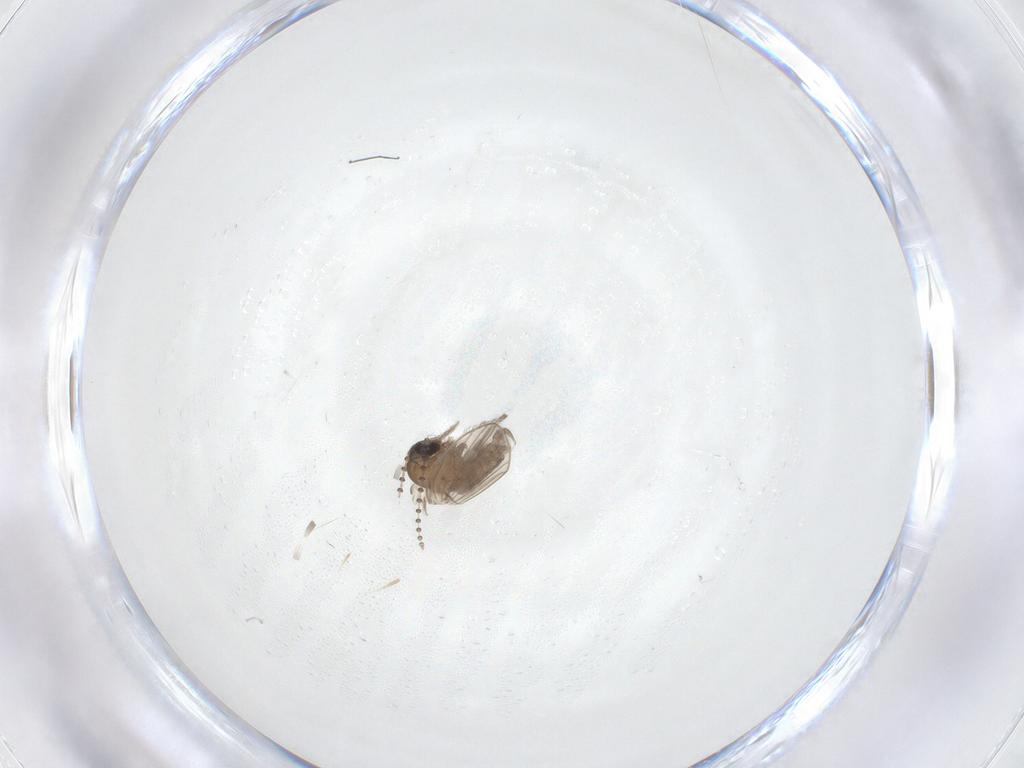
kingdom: Animalia
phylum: Arthropoda
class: Insecta
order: Diptera
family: Psychodidae
